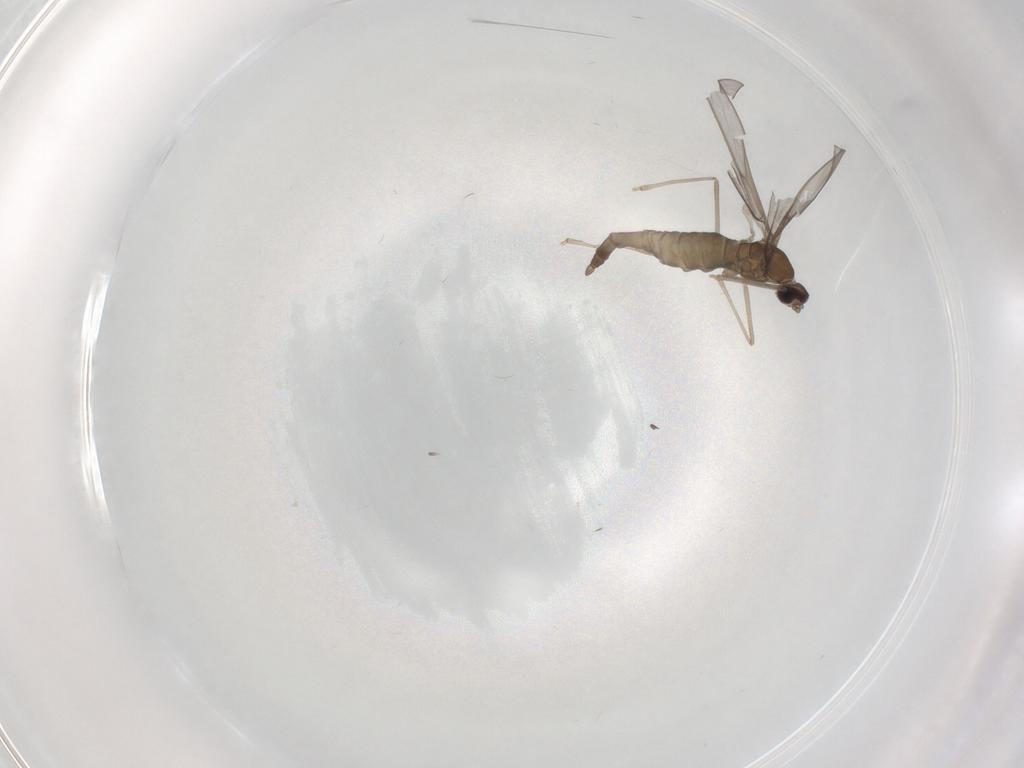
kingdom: Animalia
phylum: Arthropoda
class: Insecta
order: Diptera
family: Cecidomyiidae
